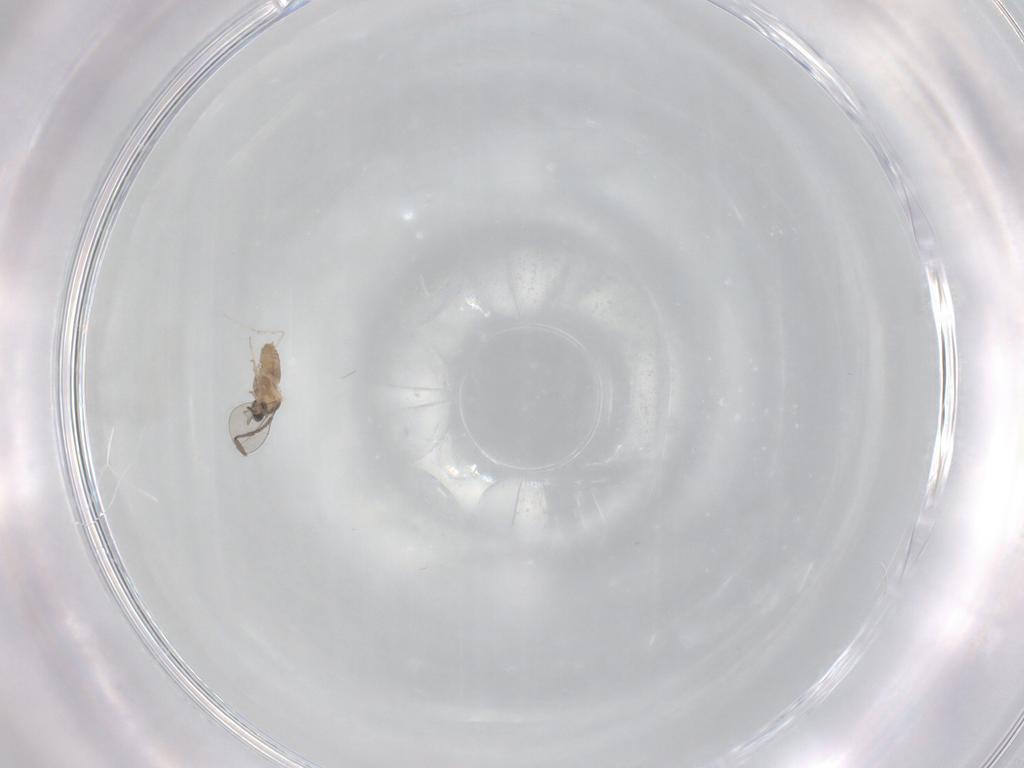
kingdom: Animalia
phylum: Arthropoda
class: Insecta
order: Diptera
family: Cecidomyiidae
